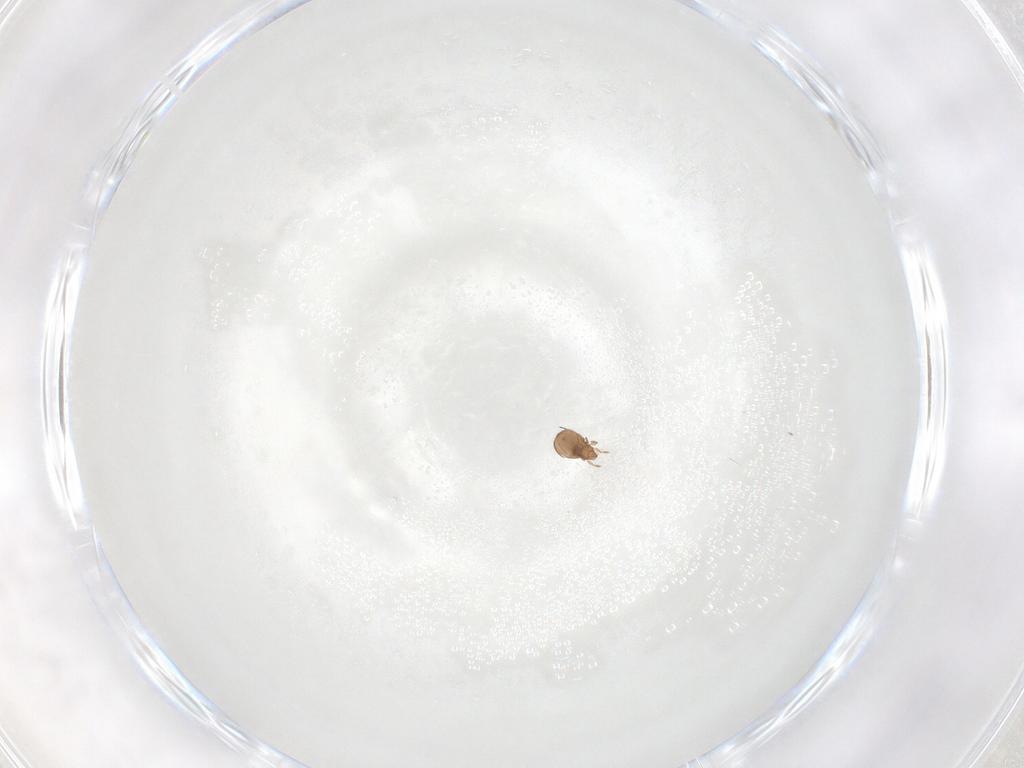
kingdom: Animalia
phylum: Arthropoda
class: Arachnida
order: Sarcoptiformes
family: Oribatulidae
